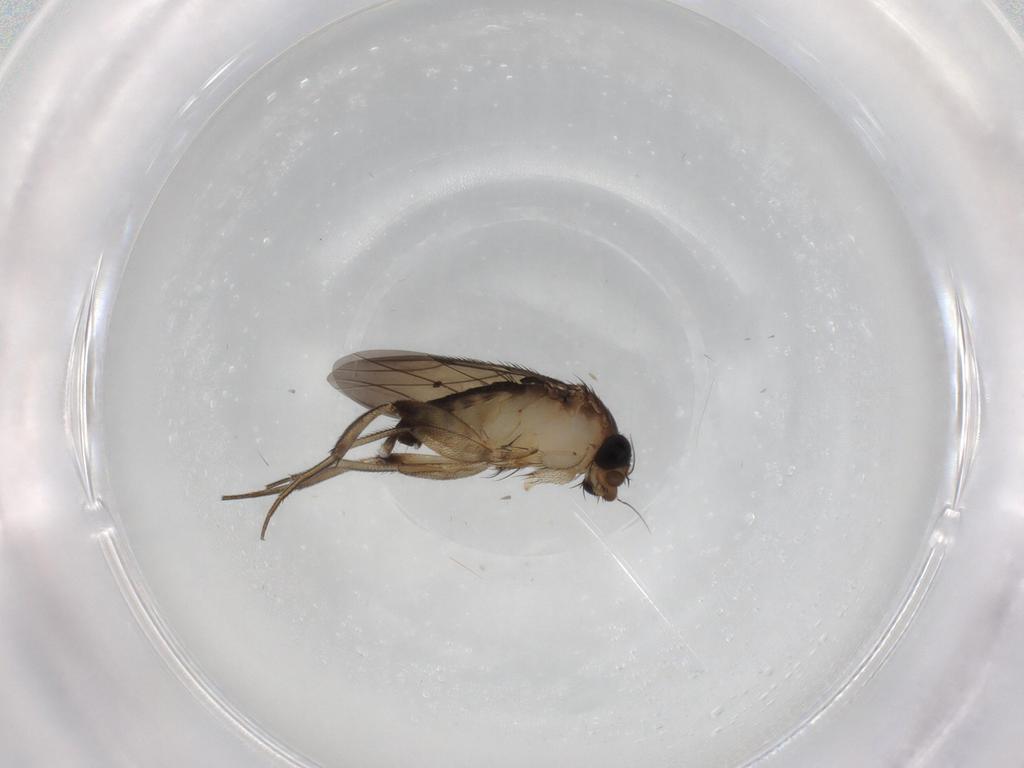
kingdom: Animalia
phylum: Arthropoda
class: Insecta
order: Diptera
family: Phoridae
